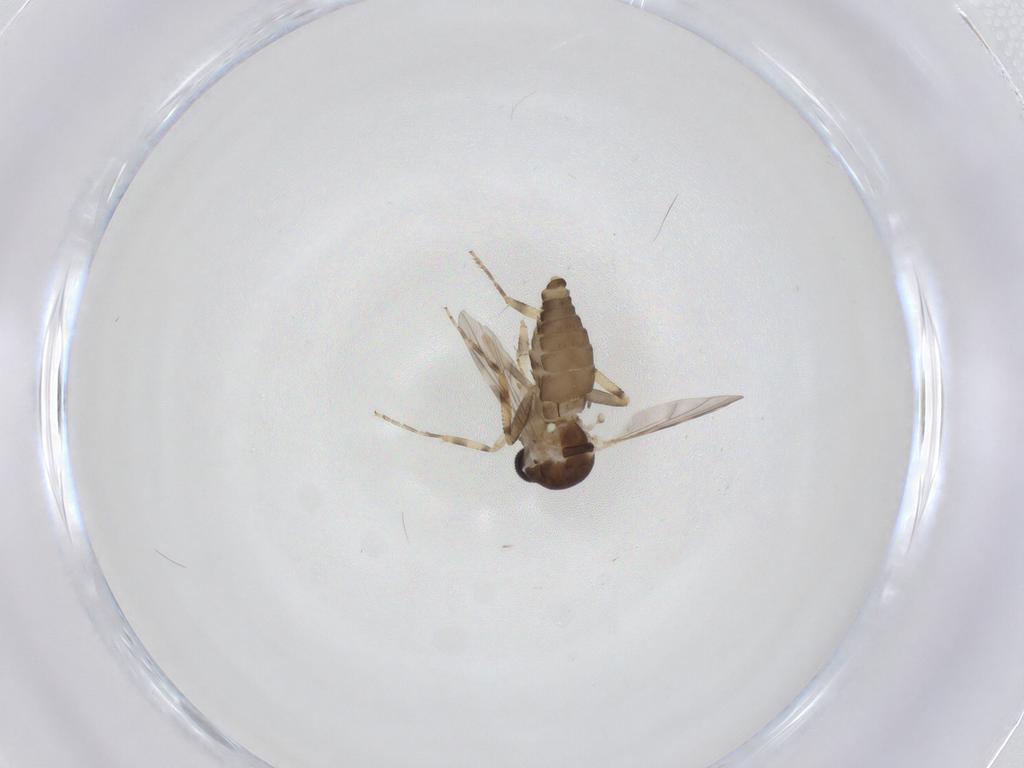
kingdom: Animalia
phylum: Arthropoda
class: Insecta
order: Diptera
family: Ceratopogonidae
